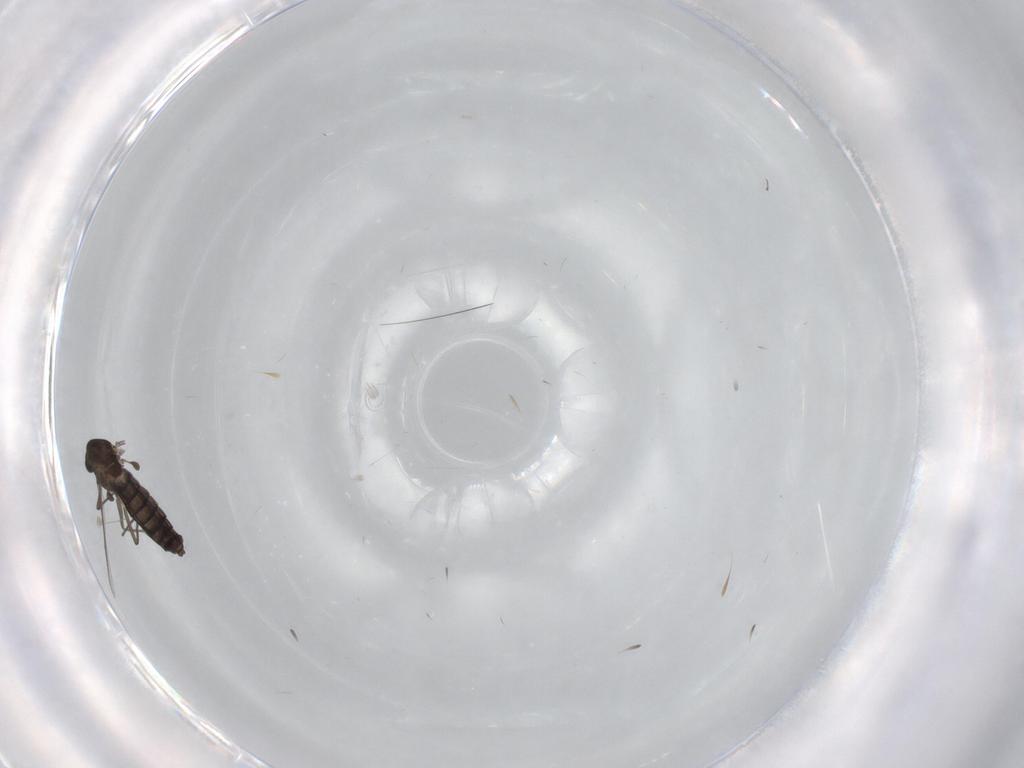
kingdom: Animalia
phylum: Arthropoda
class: Insecta
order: Diptera
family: Chironomidae
